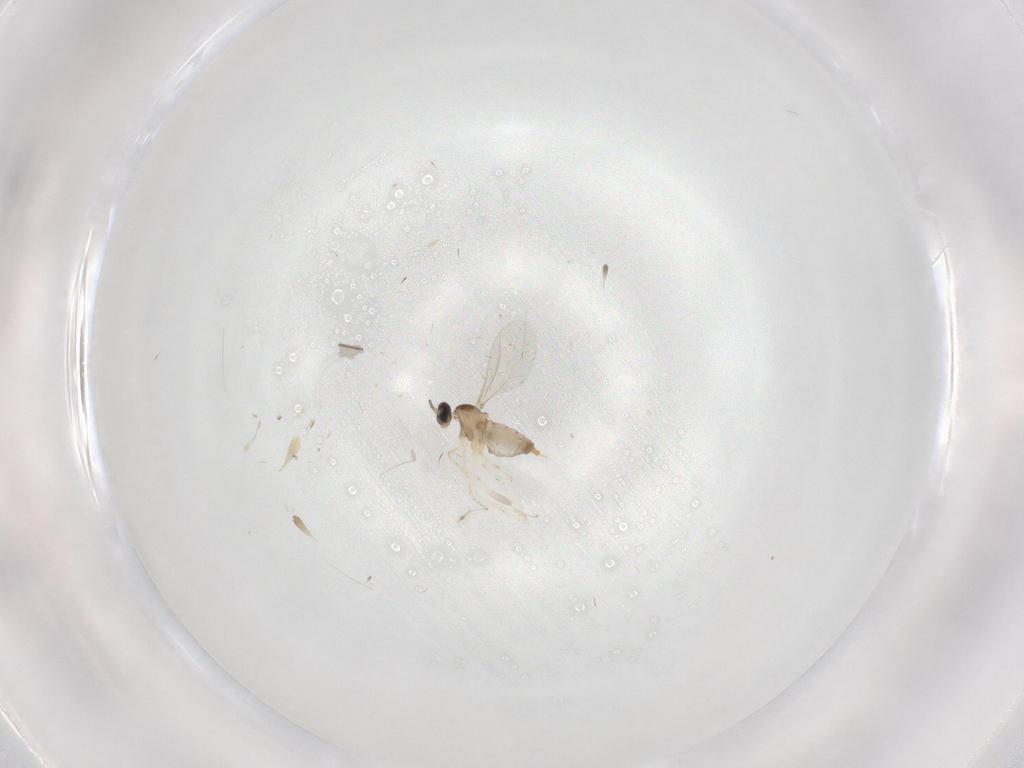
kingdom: Animalia
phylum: Arthropoda
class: Insecta
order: Diptera
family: Cecidomyiidae
